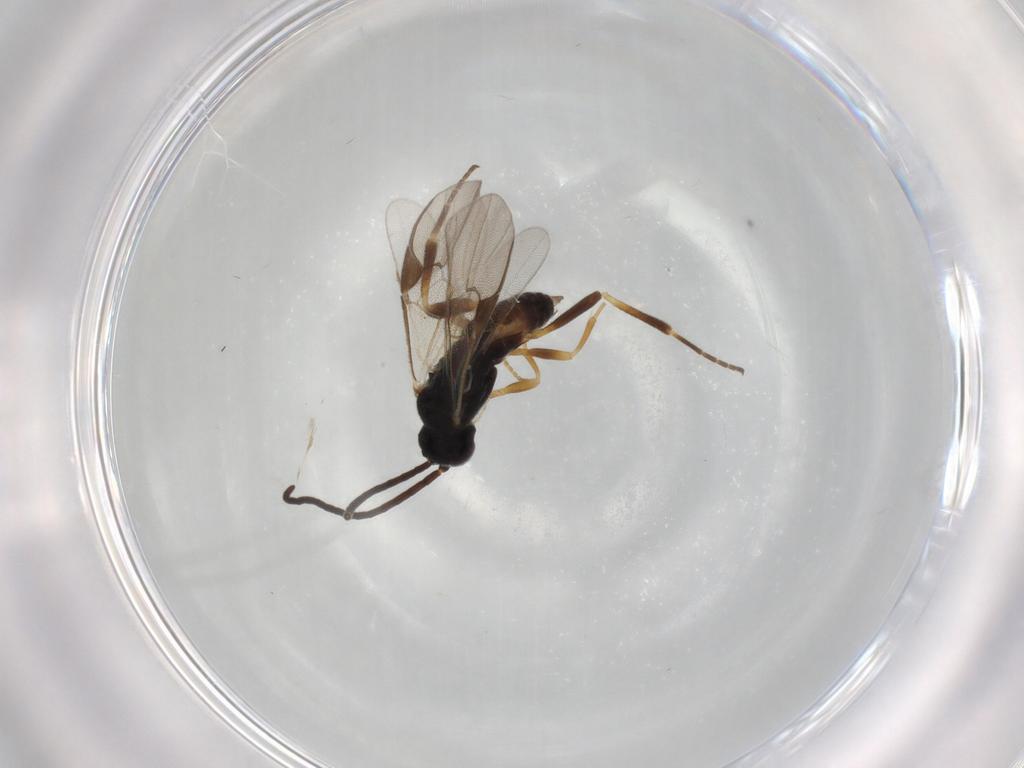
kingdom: Animalia
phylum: Arthropoda
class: Insecta
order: Hymenoptera
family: Braconidae
